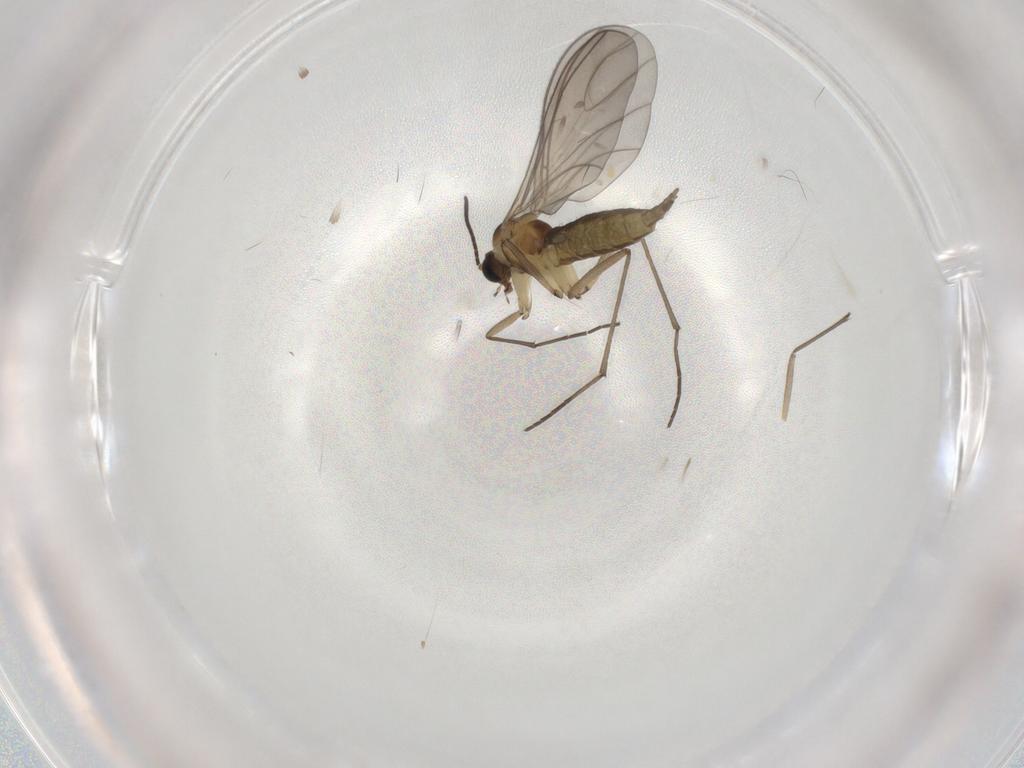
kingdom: Animalia
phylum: Arthropoda
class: Insecta
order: Diptera
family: Sciaridae
